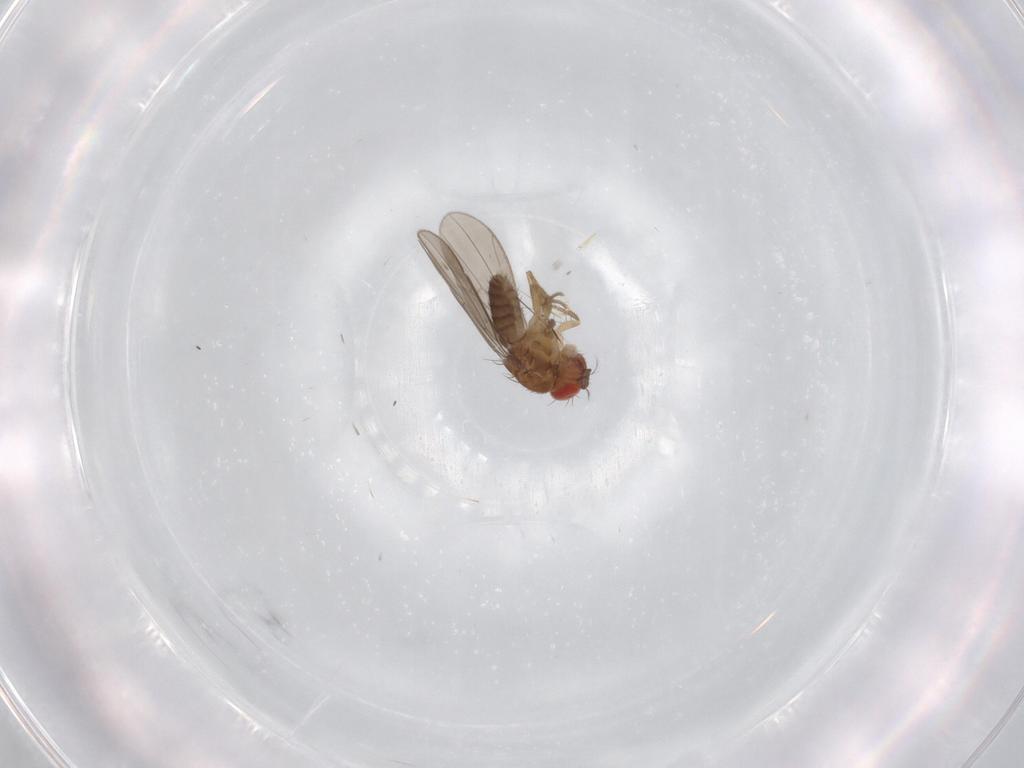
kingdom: Animalia
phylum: Arthropoda
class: Insecta
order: Diptera
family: Drosophilidae
